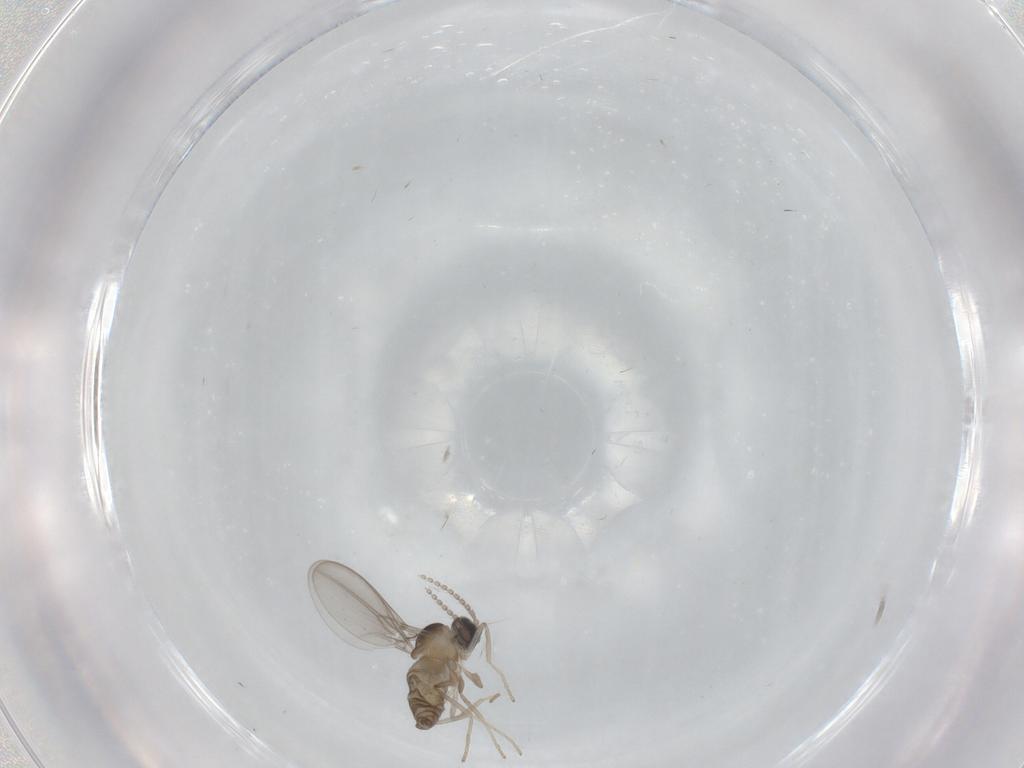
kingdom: Animalia
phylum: Arthropoda
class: Insecta
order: Diptera
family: Cecidomyiidae
